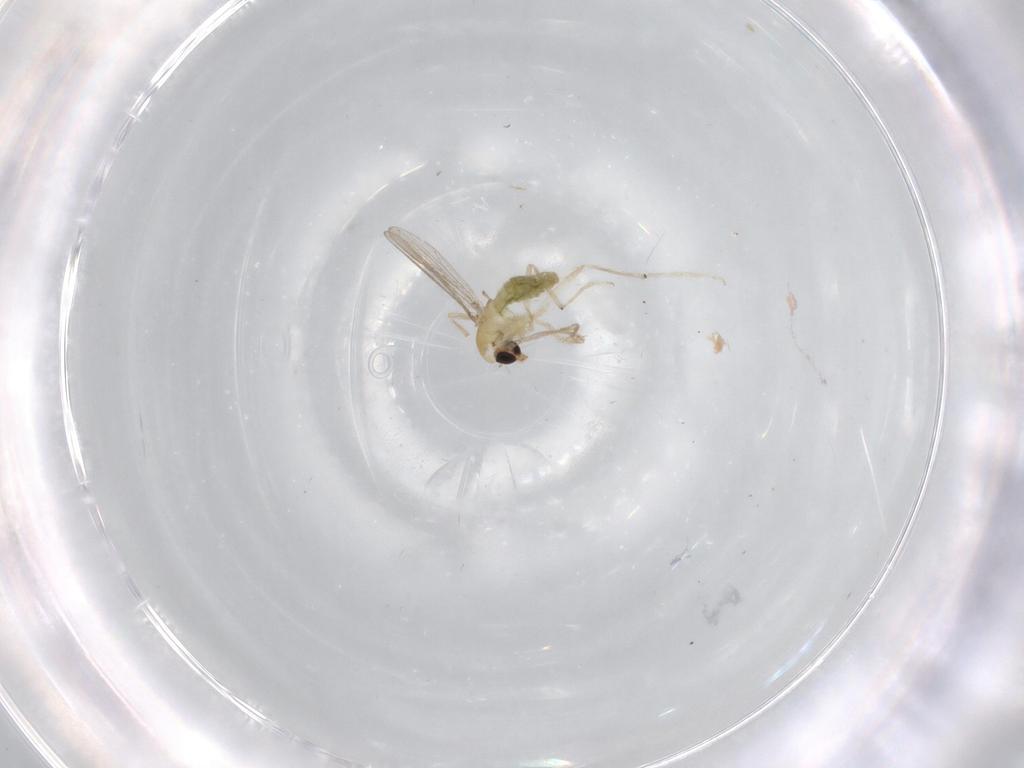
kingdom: Animalia
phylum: Arthropoda
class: Insecta
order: Diptera
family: Chironomidae
